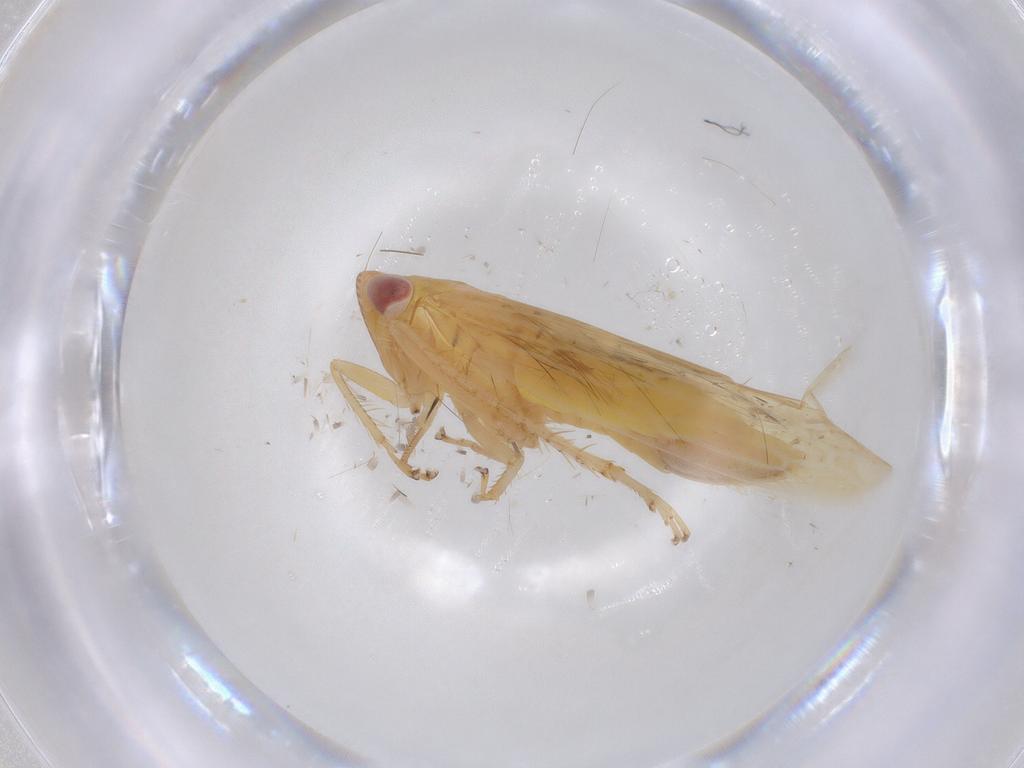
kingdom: Animalia
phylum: Arthropoda
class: Insecta
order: Hemiptera
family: Cicadellidae
